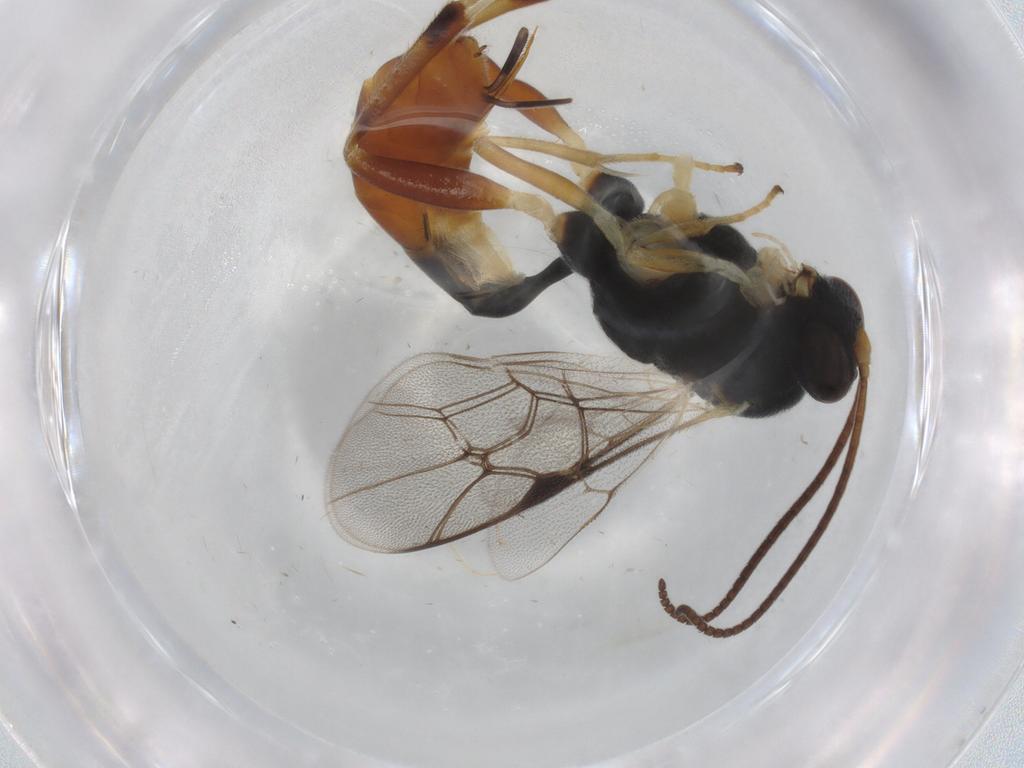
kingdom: Animalia
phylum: Arthropoda
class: Insecta
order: Hymenoptera
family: Ichneumonidae
